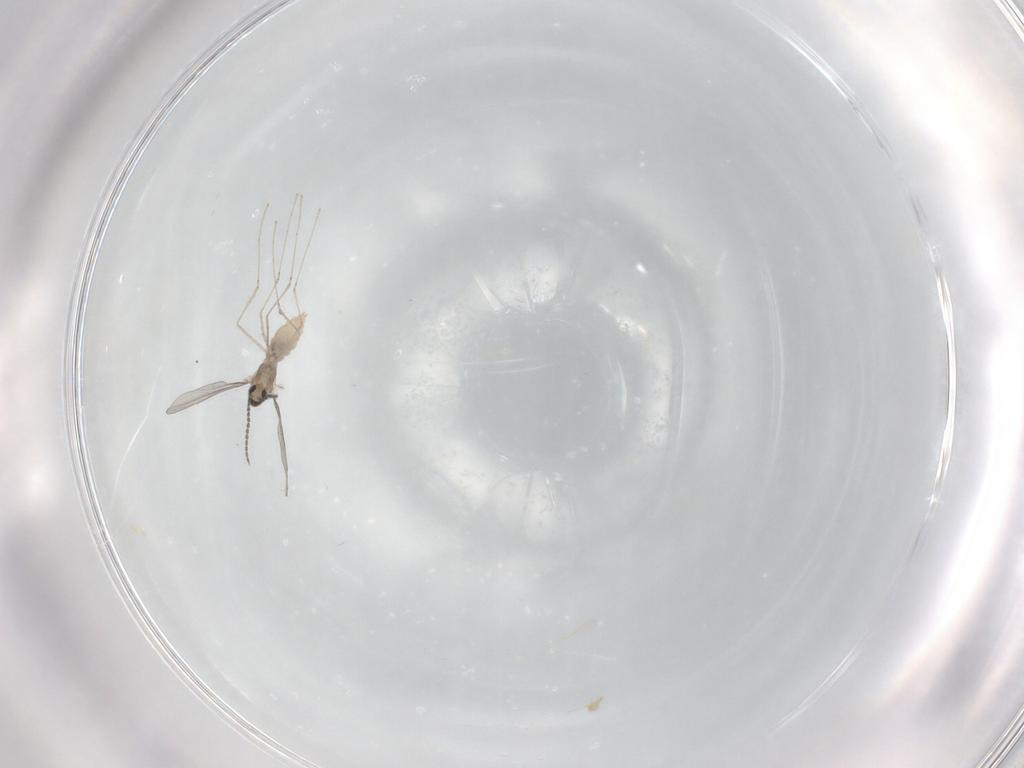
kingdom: Animalia
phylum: Arthropoda
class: Insecta
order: Diptera
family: Cecidomyiidae
